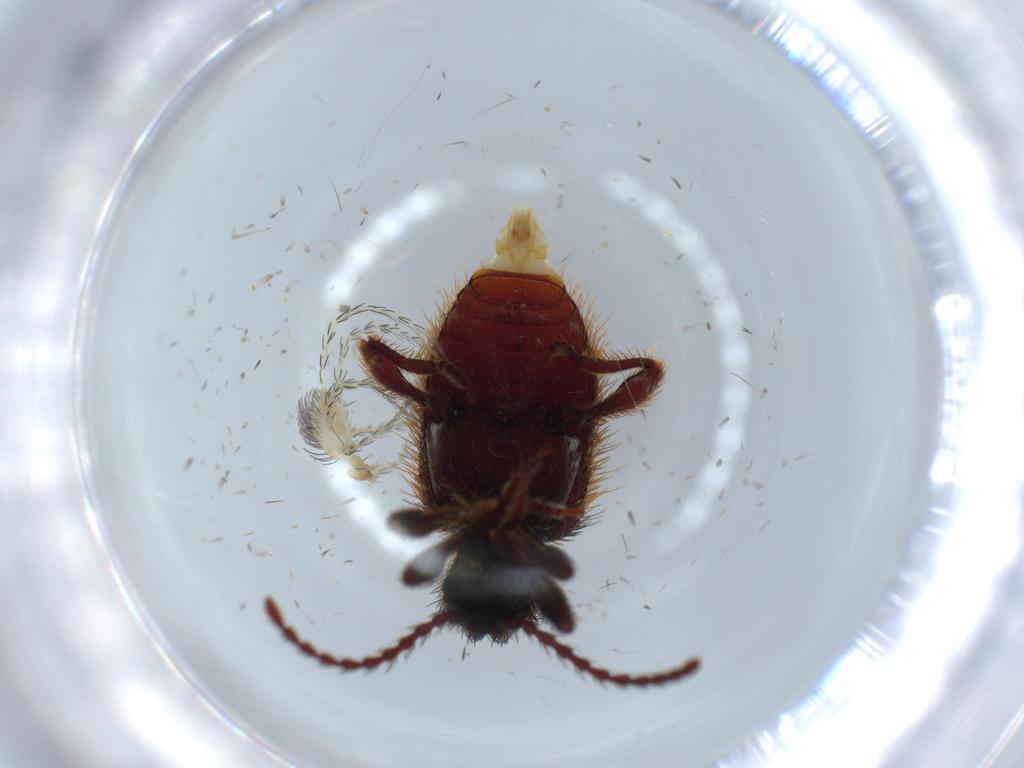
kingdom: Animalia
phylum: Arthropoda
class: Arachnida
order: Trombidiformes
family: Erythraeidae
